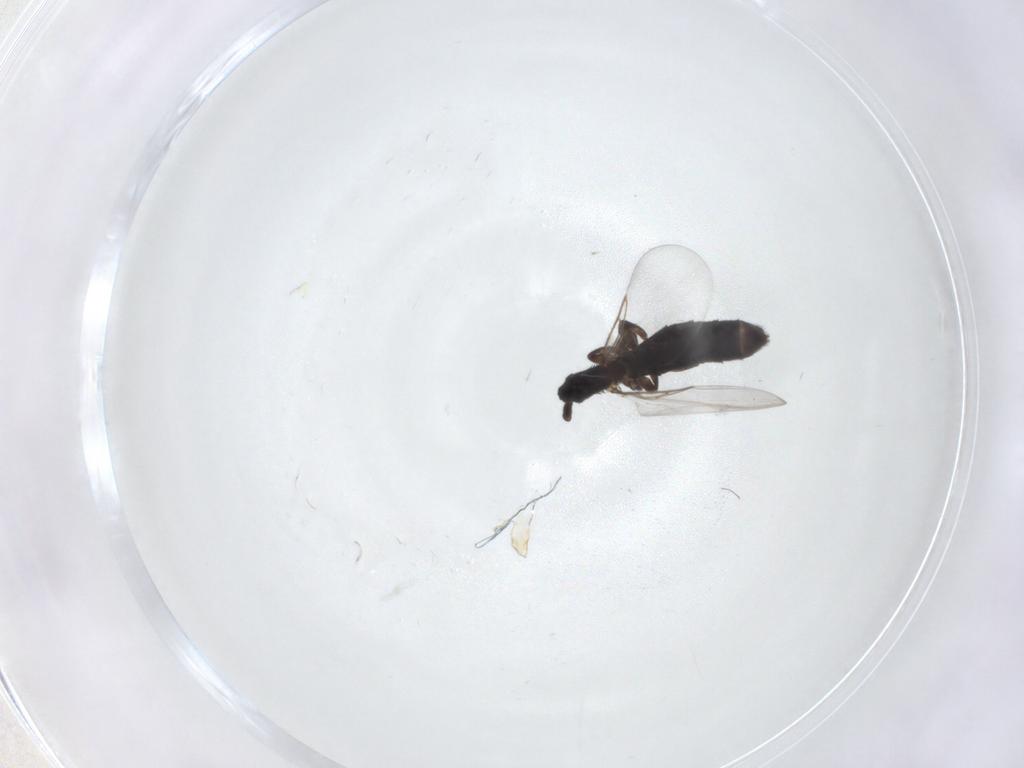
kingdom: Animalia
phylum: Arthropoda
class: Insecta
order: Diptera
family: Scatopsidae
